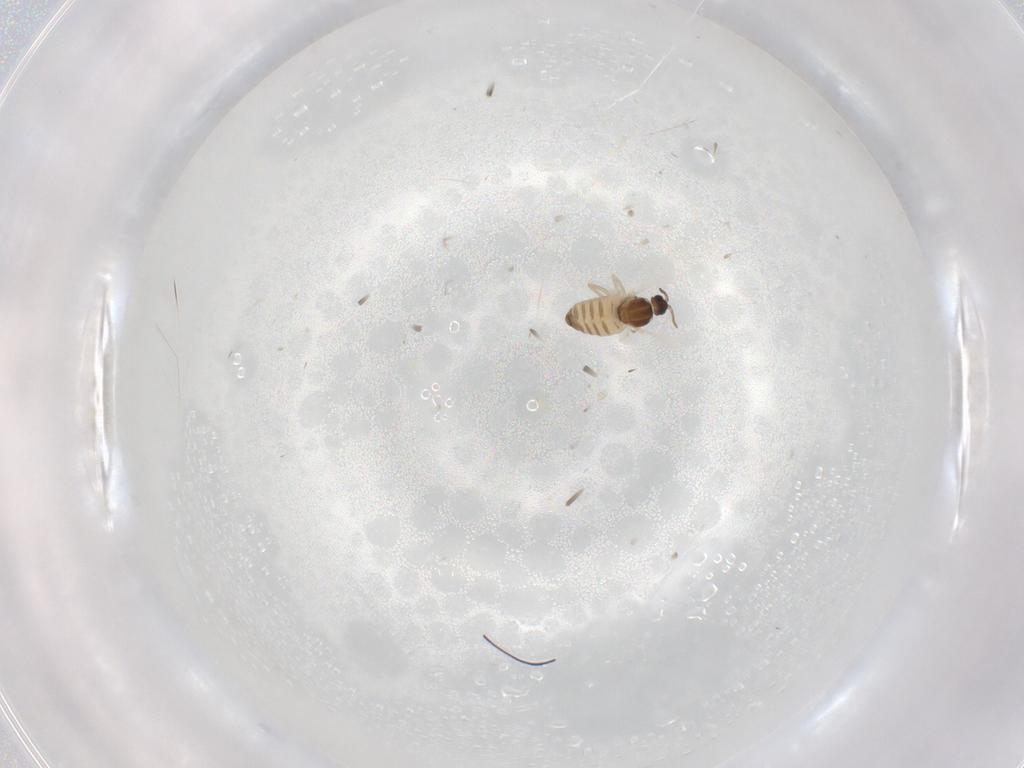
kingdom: Animalia
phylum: Arthropoda
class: Insecta
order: Diptera
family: Cecidomyiidae
